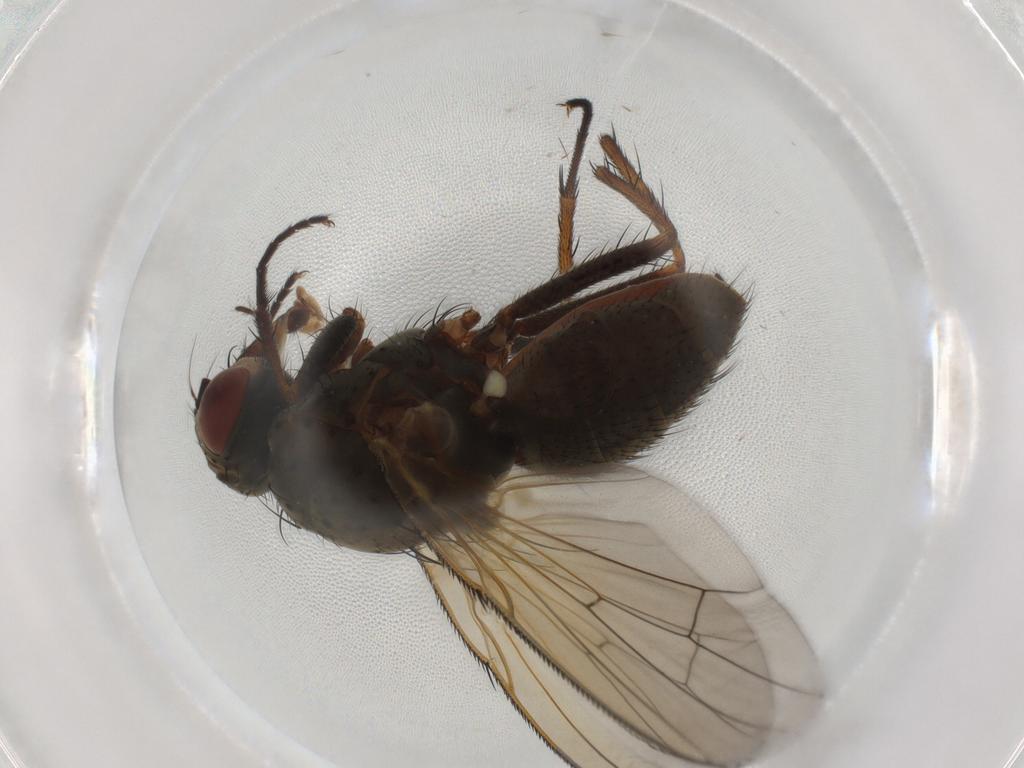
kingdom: Animalia
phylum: Arthropoda
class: Insecta
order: Diptera
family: Anthomyiidae
